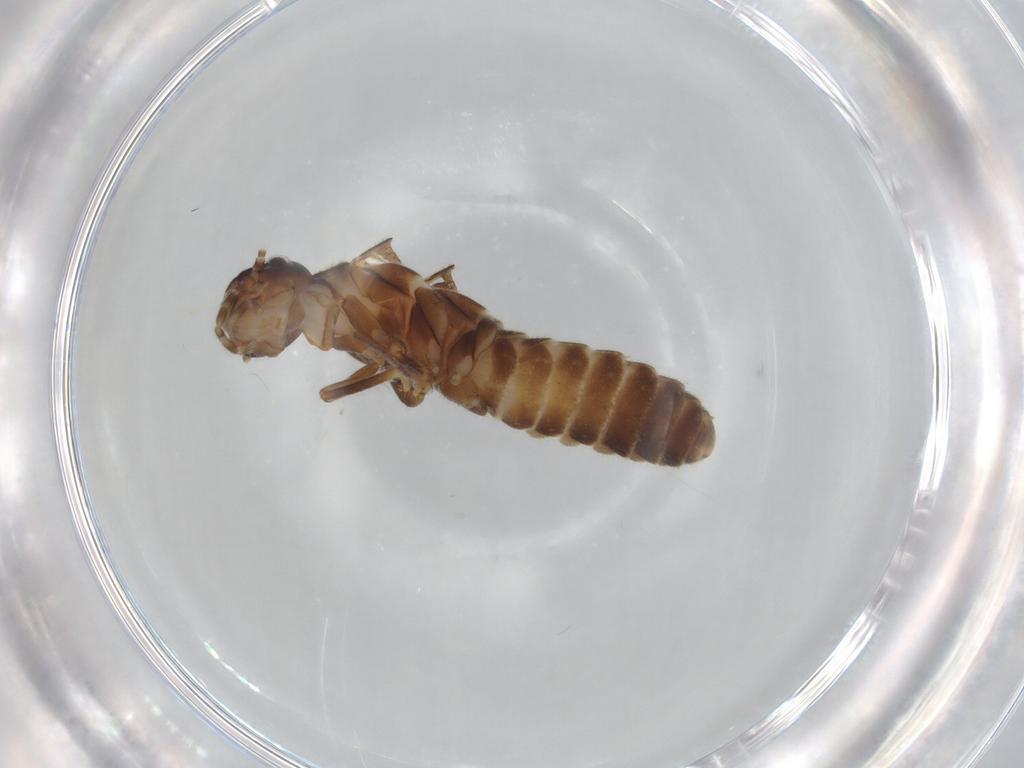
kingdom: Animalia
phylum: Arthropoda
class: Insecta
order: Blattodea
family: Termitidae
